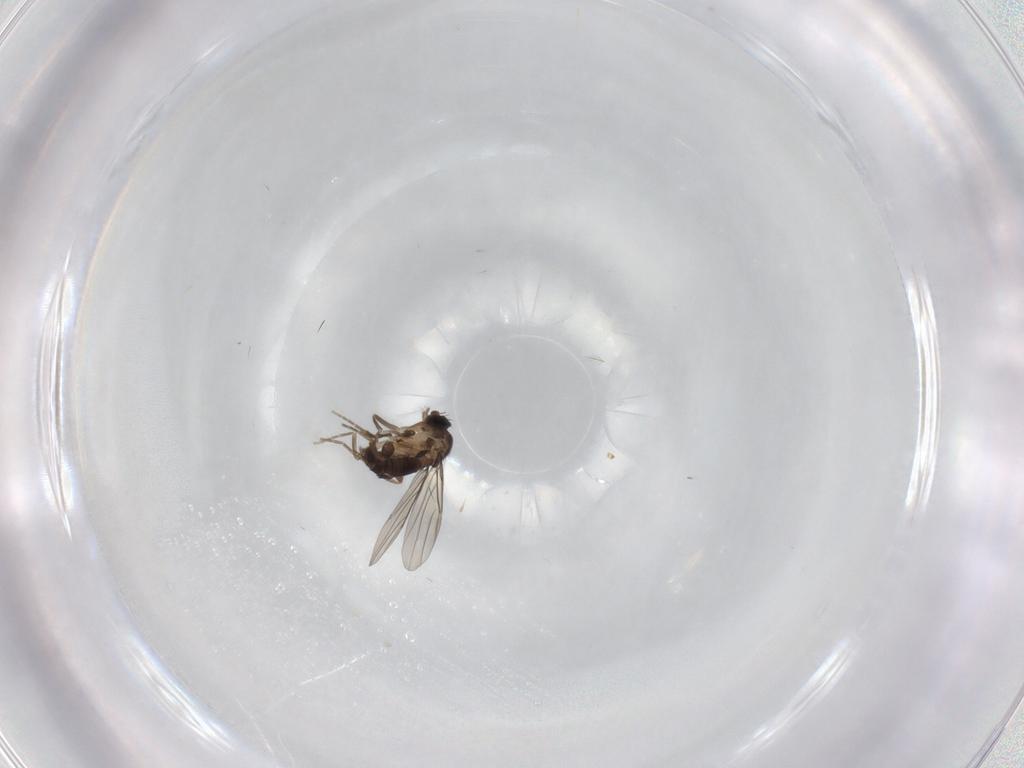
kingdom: Animalia
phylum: Arthropoda
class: Insecta
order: Diptera
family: Phoridae
